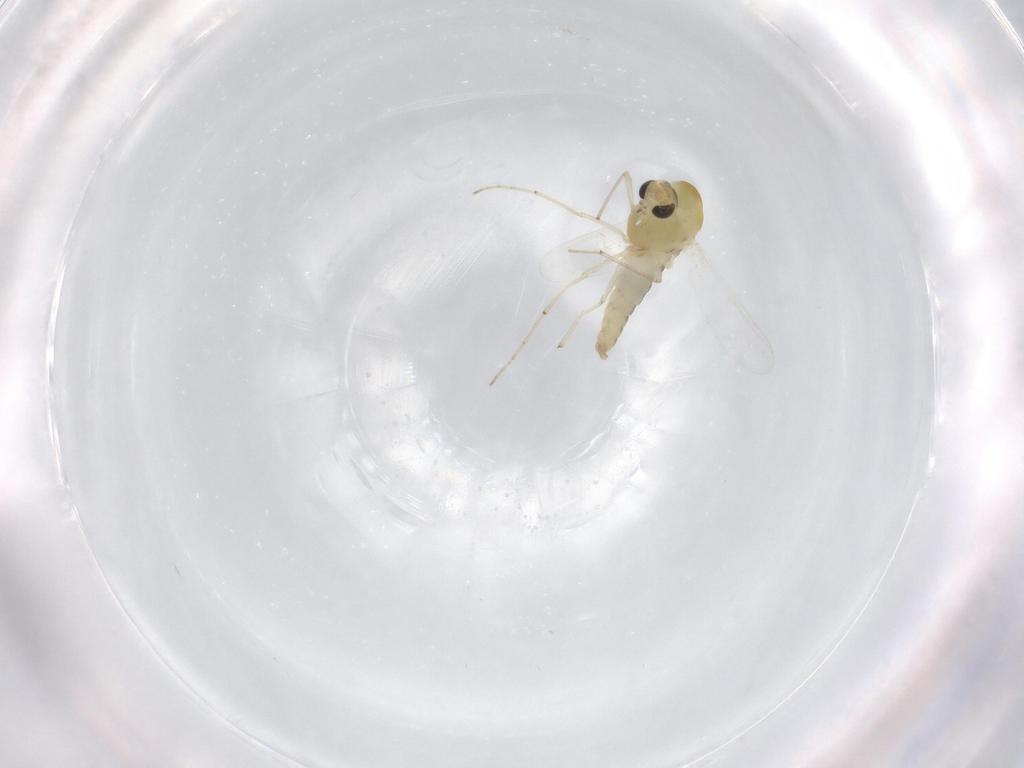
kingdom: Animalia
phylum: Arthropoda
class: Insecta
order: Diptera
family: Chironomidae
